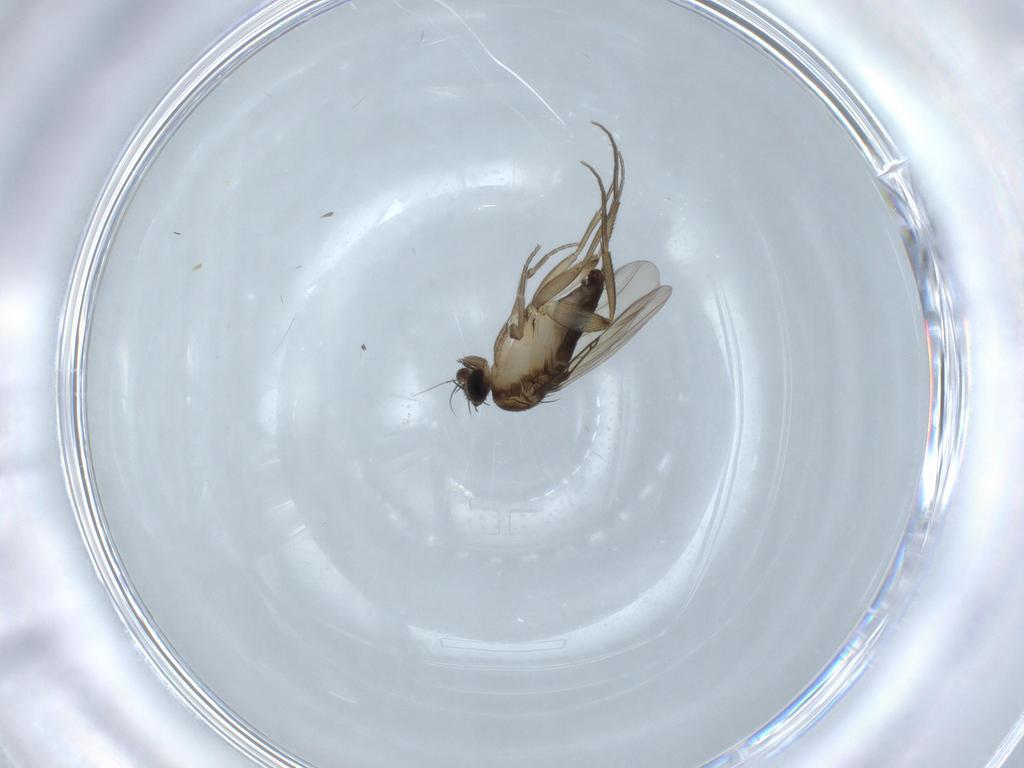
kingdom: Animalia
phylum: Arthropoda
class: Insecta
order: Diptera
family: Phoridae
